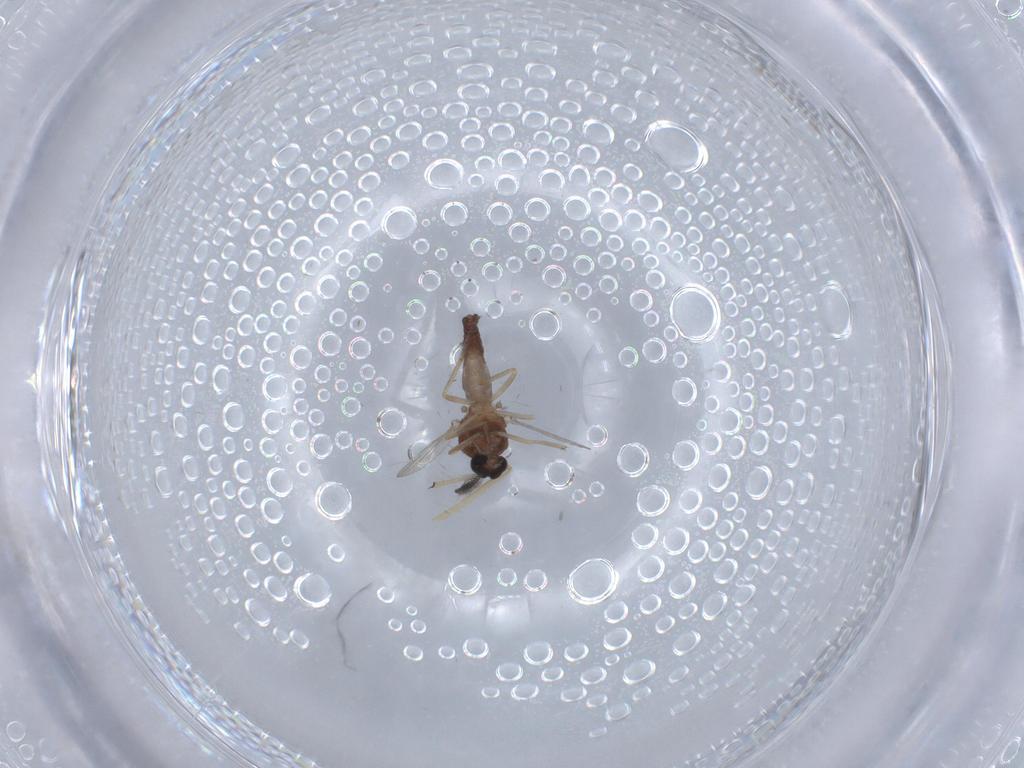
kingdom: Animalia
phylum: Arthropoda
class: Insecta
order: Diptera
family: Ceratopogonidae
